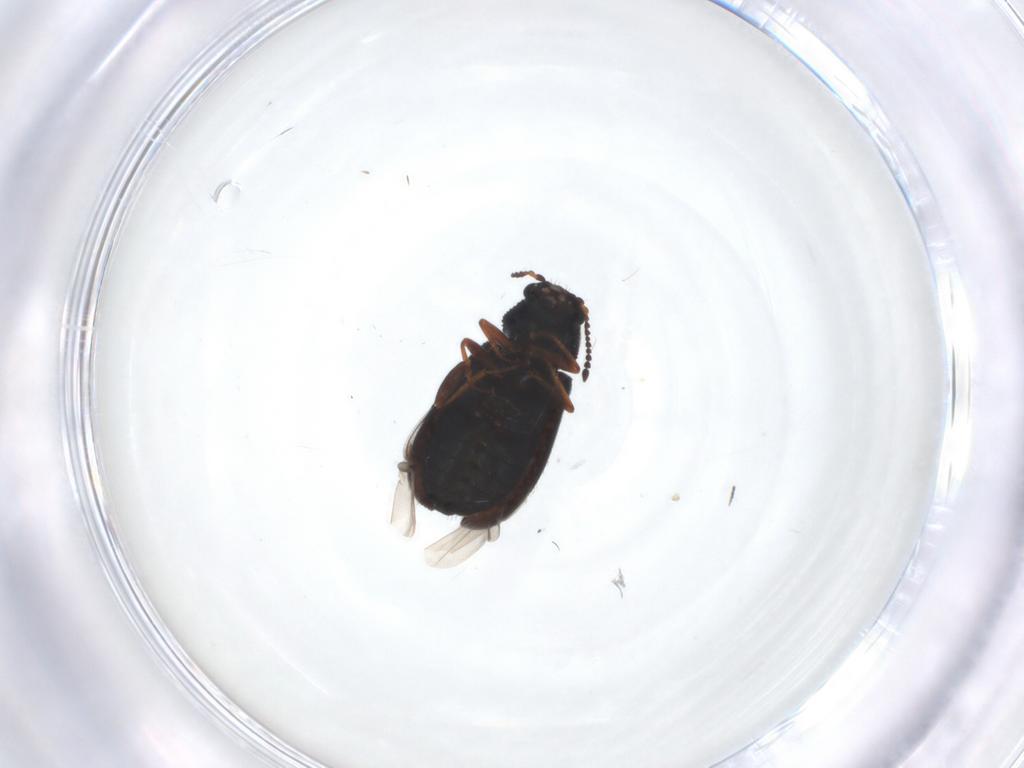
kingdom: Animalia
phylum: Arthropoda
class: Insecta
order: Coleoptera
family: Melyridae
